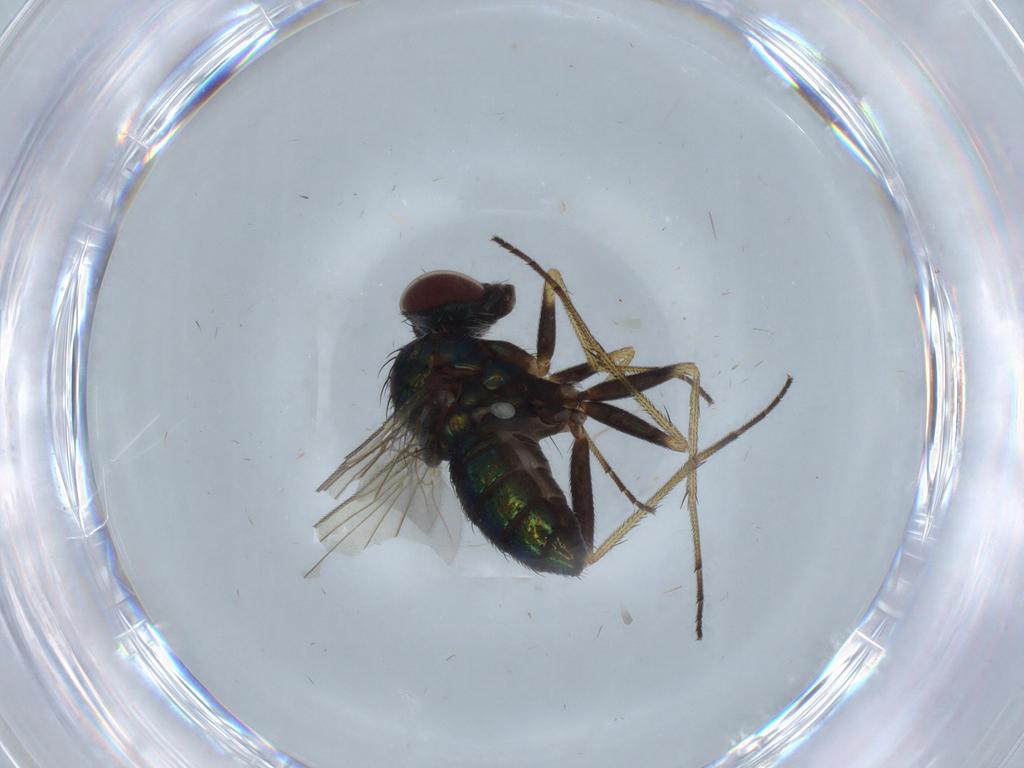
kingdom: Animalia
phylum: Arthropoda
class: Insecta
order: Diptera
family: Dolichopodidae
